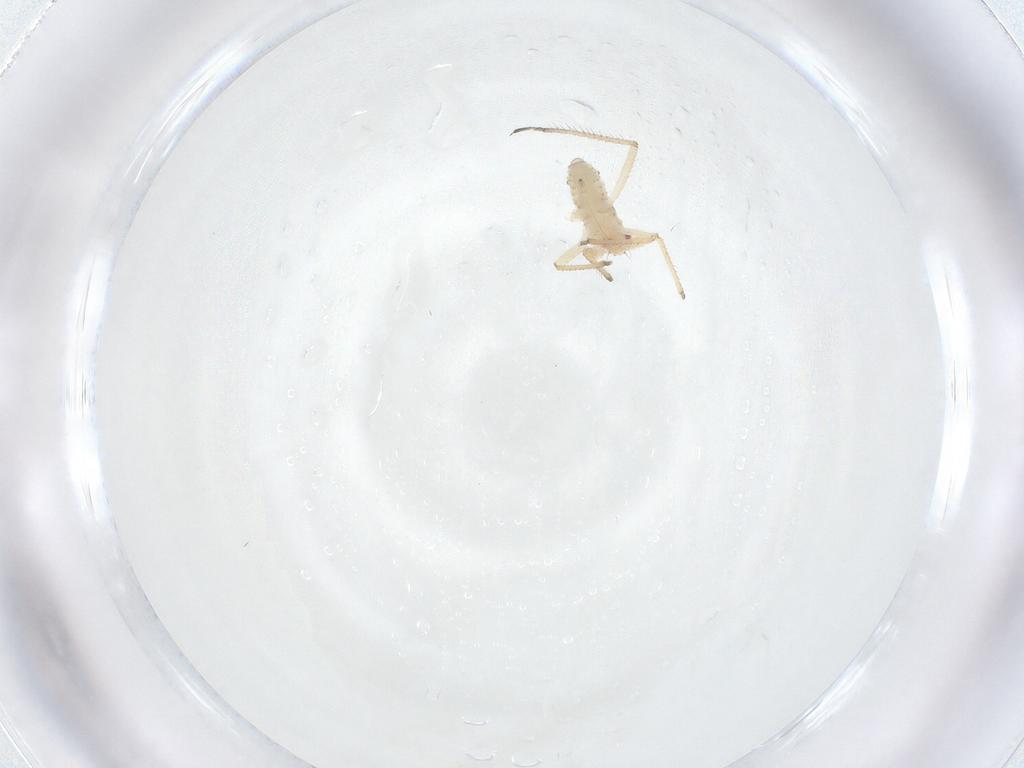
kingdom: Animalia
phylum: Arthropoda
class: Insecta
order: Hemiptera
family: Aphididae
